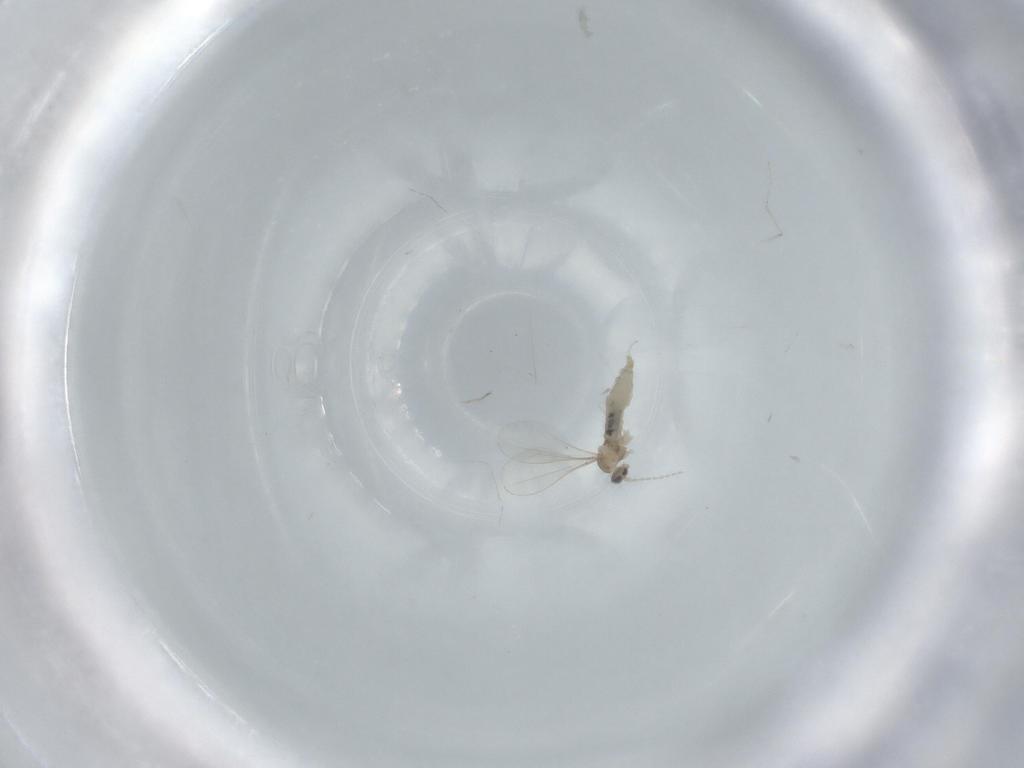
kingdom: Animalia
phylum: Arthropoda
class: Insecta
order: Diptera
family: Cecidomyiidae
